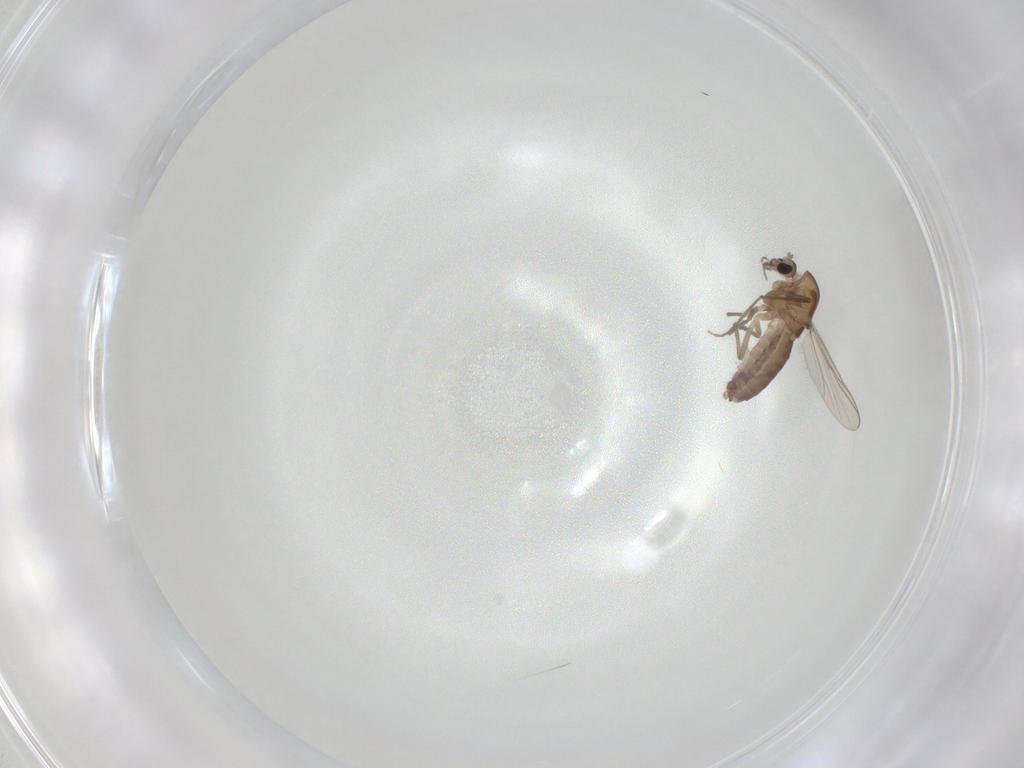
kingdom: Animalia
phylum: Arthropoda
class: Insecta
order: Diptera
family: Chironomidae
